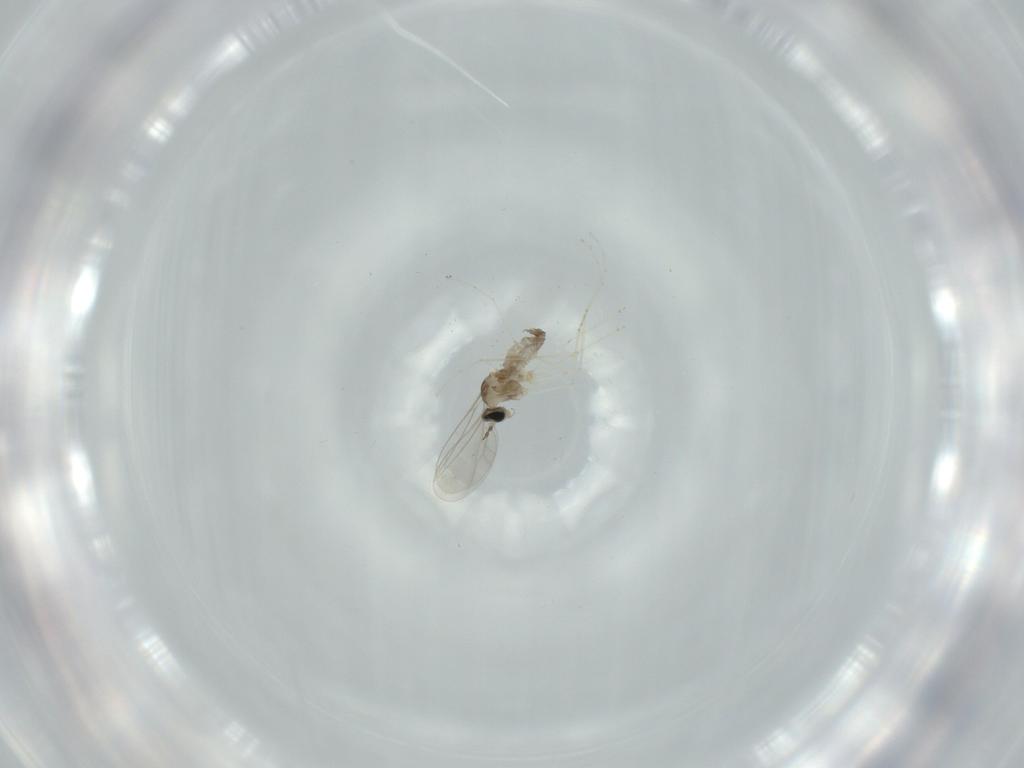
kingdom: Animalia
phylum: Arthropoda
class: Insecta
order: Diptera
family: Cecidomyiidae
